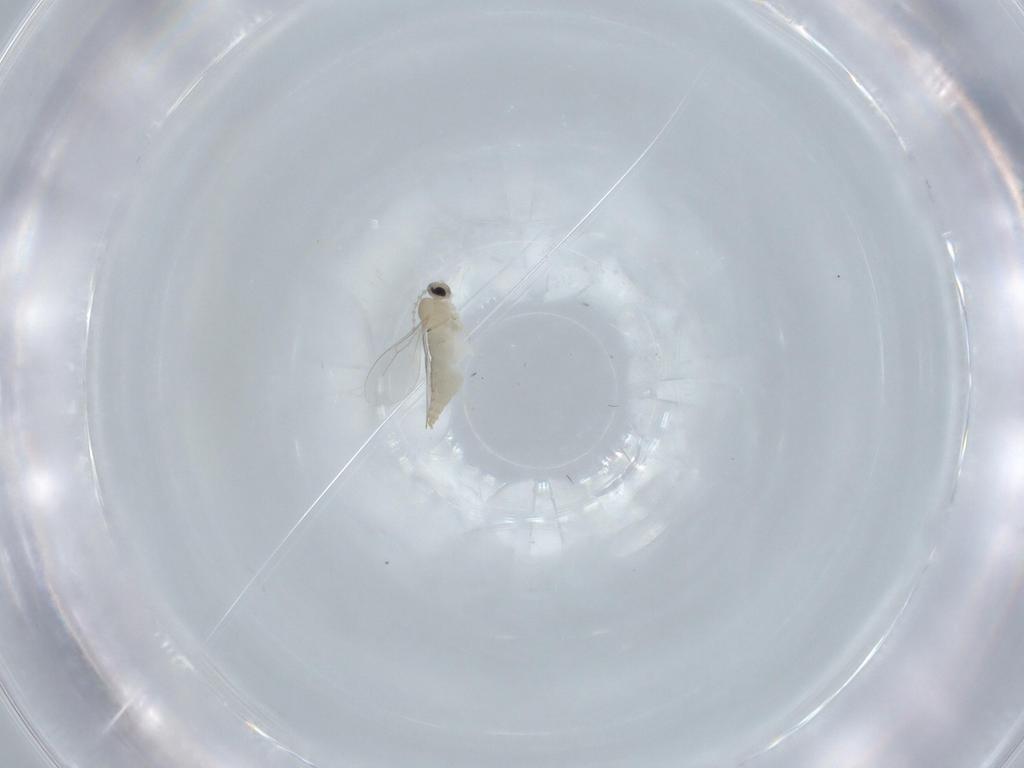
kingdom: Animalia
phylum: Arthropoda
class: Insecta
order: Diptera
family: Cecidomyiidae
